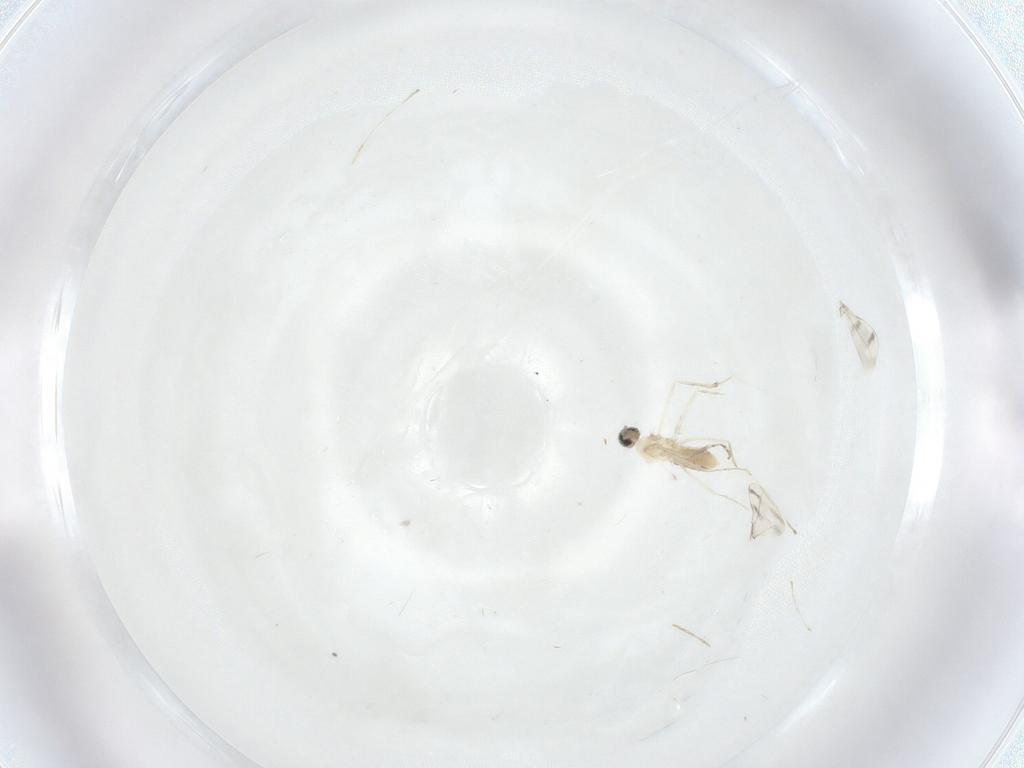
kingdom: Animalia
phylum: Arthropoda
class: Insecta
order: Diptera
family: Cecidomyiidae
